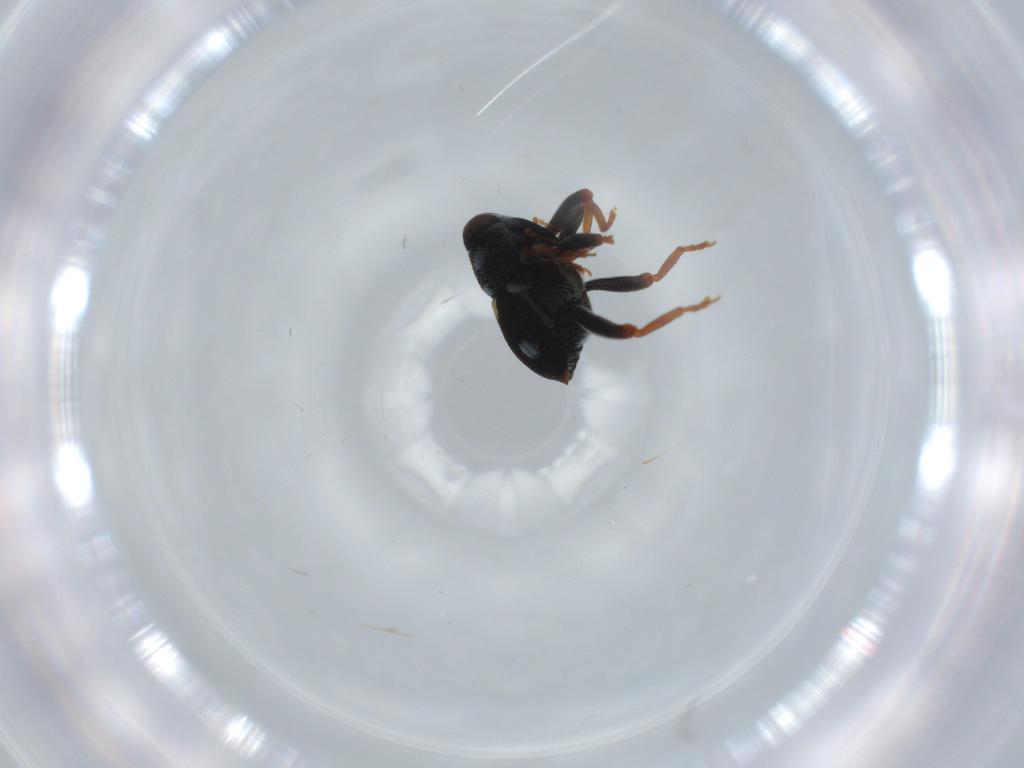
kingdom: Animalia
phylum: Arthropoda
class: Insecta
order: Coleoptera
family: Curculionidae
